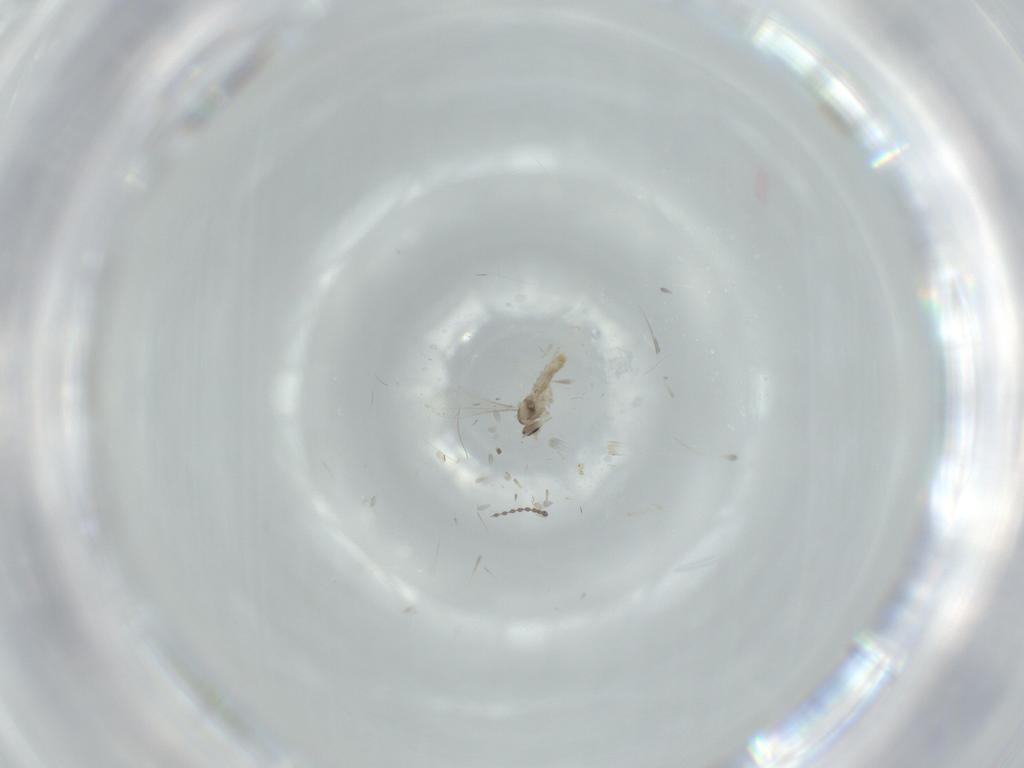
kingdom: Animalia
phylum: Arthropoda
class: Insecta
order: Diptera
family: Cecidomyiidae
